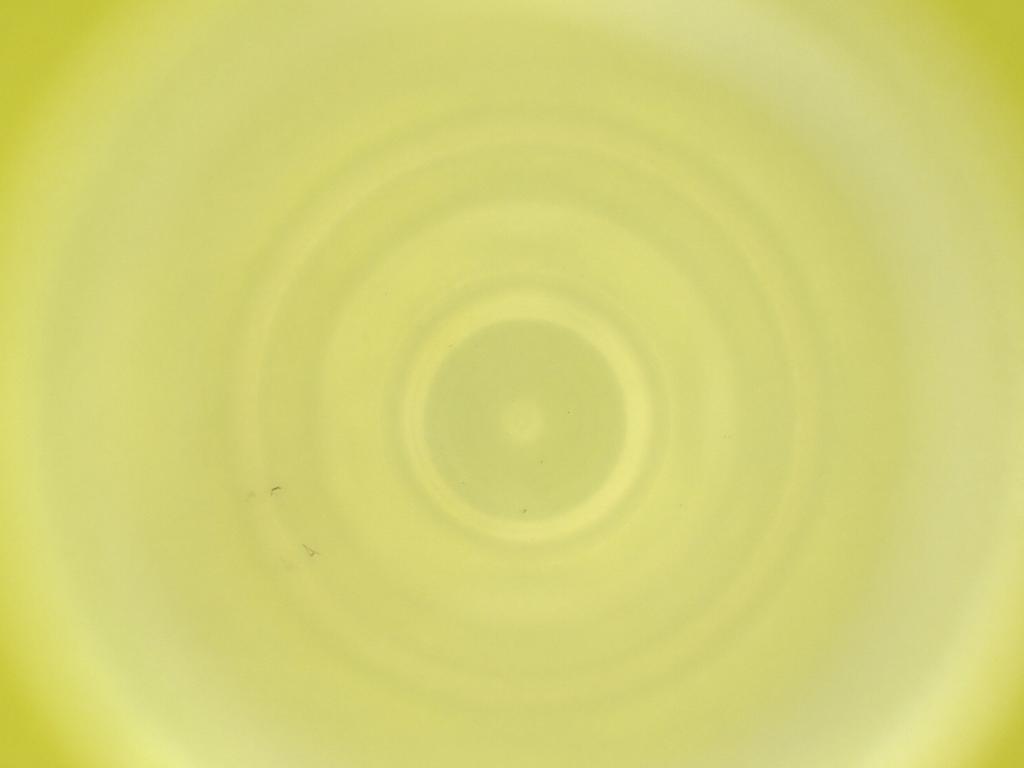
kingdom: Animalia
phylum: Arthropoda
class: Insecta
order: Diptera
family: Cecidomyiidae
